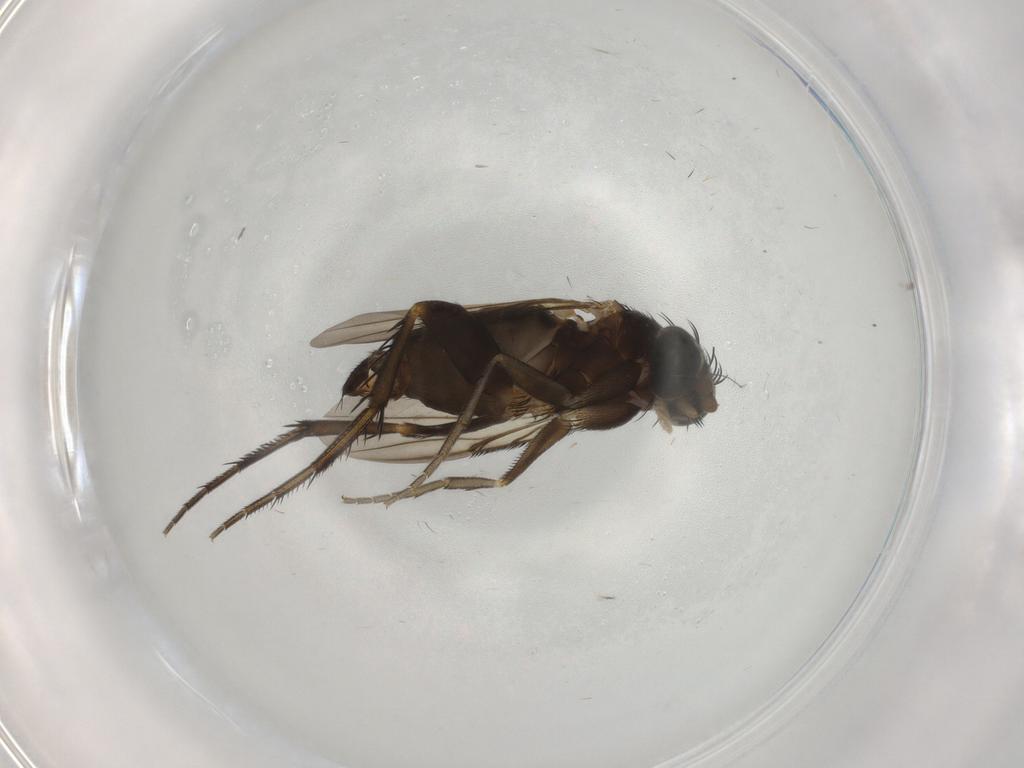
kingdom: Animalia
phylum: Arthropoda
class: Insecta
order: Diptera
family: Phoridae
